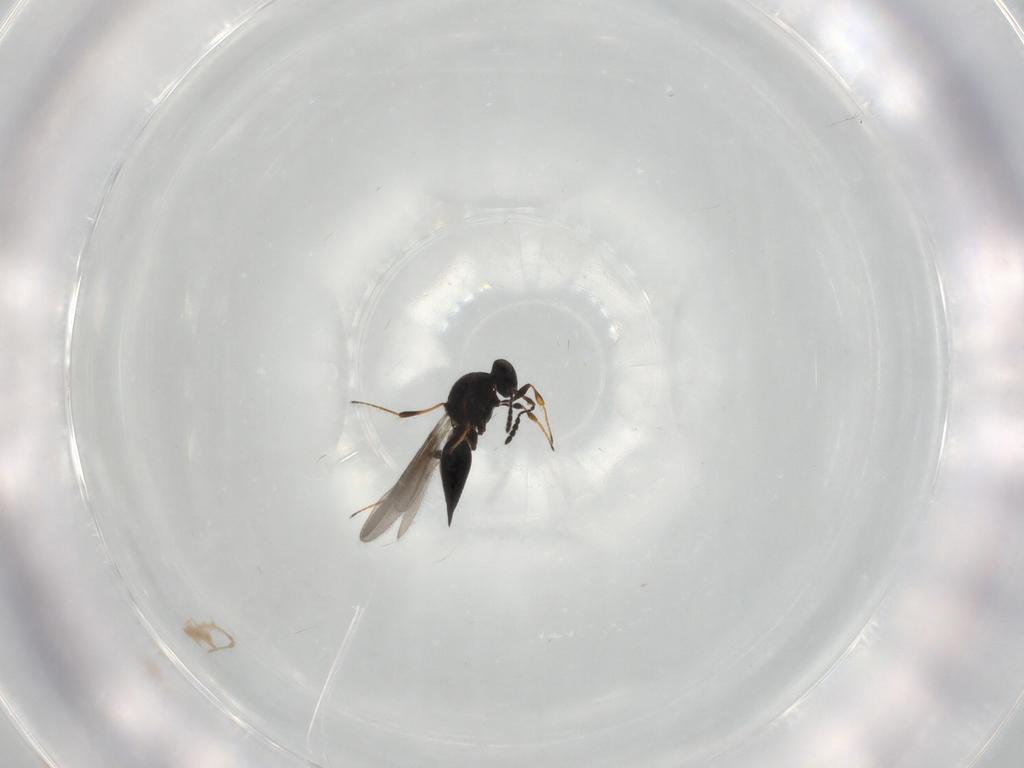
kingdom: Animalia
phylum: Arthropoda
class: Insecta
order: Hymenoptera
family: Platygastridae
